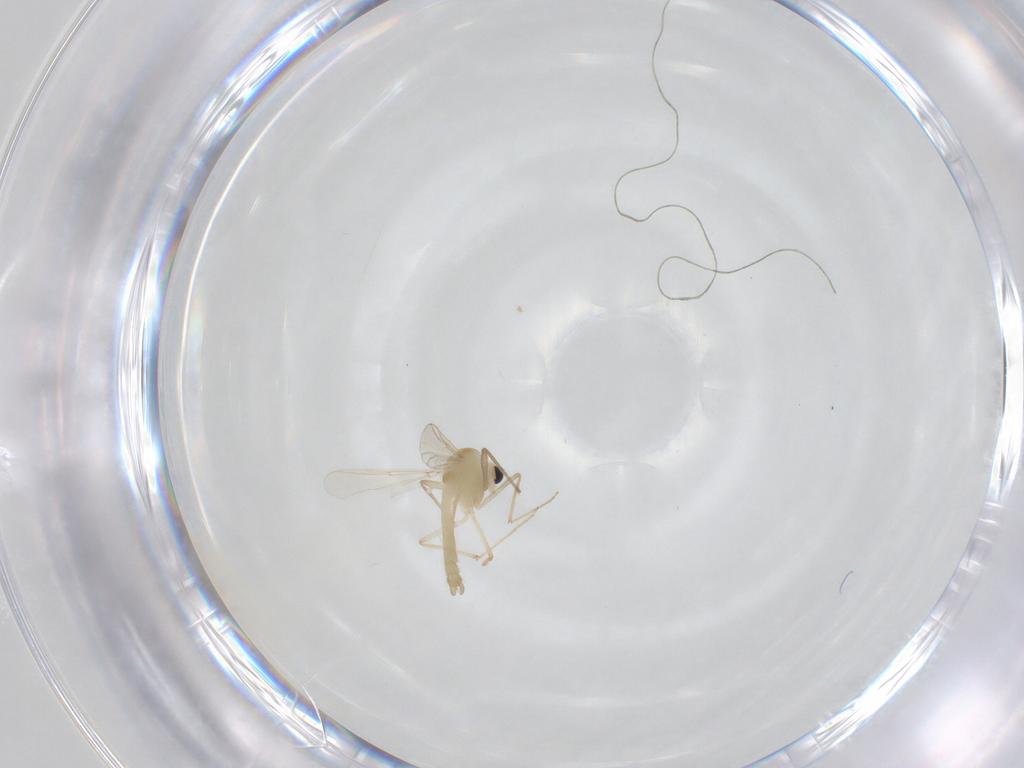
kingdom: Animalia
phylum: Arthropoda
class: Insecta
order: Diptera
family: Chironomidae
